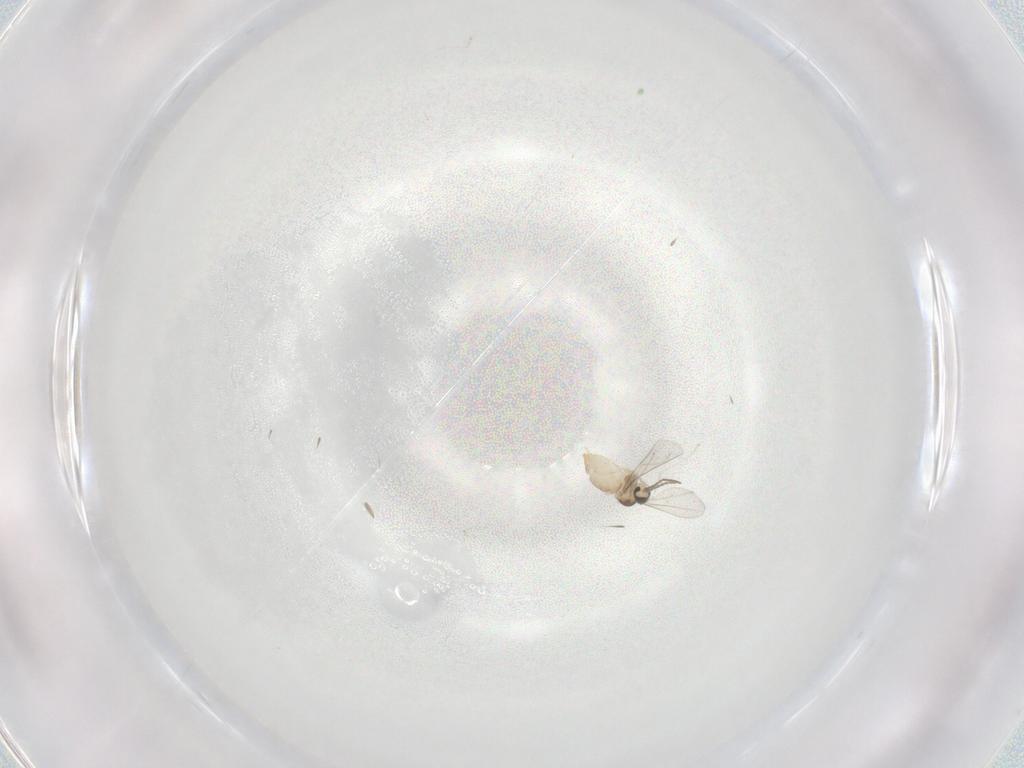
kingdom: Animalia
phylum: Arthropoda
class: Insecta
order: Diptera
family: Cecidomyiidae
